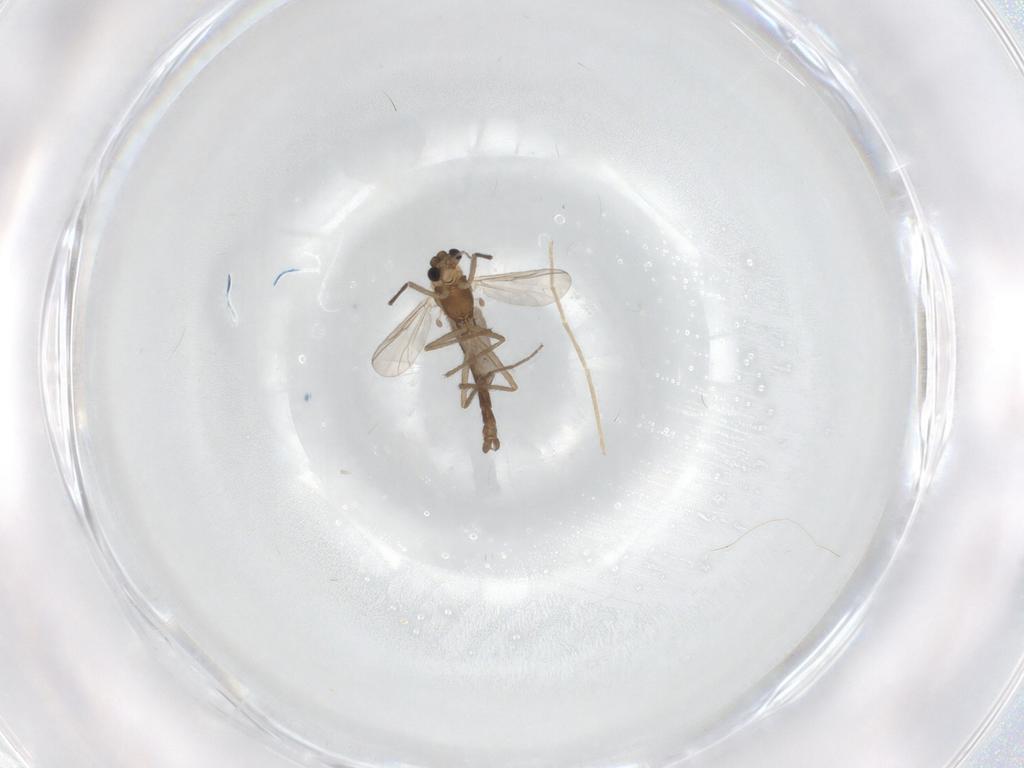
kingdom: Animalia
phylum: Arthropoda
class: Insecta
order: Diptera
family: Chironomidae
